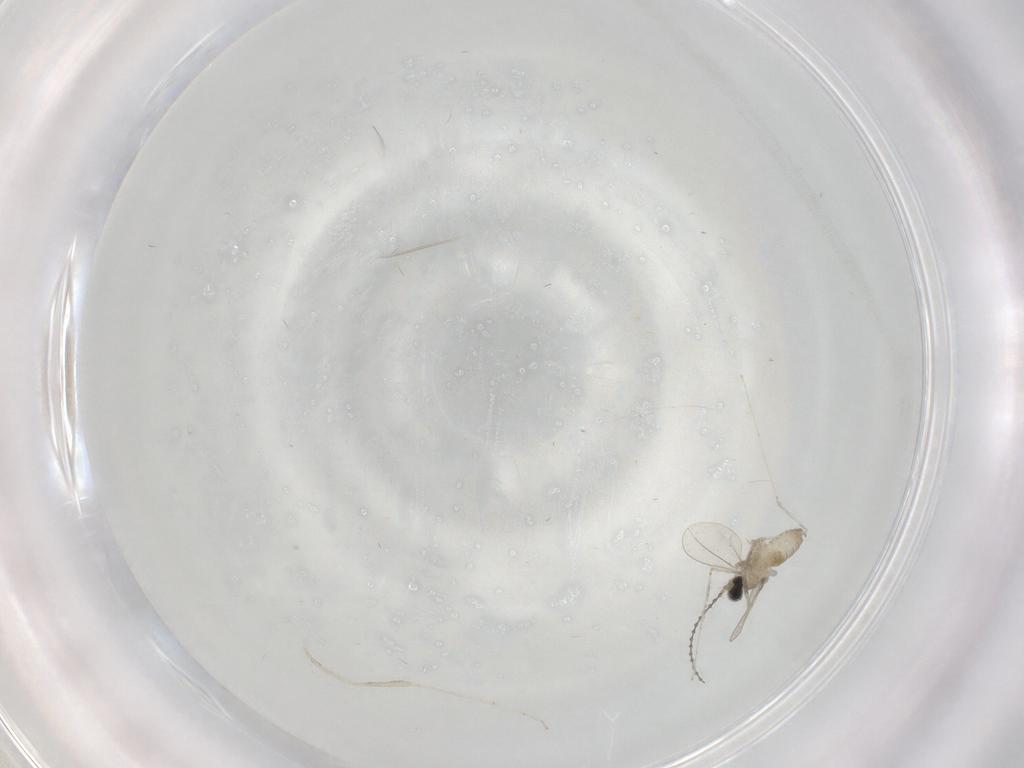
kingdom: Animalia
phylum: Arthropoda
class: Insecta
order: Diptera
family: Cecidomyiidae
